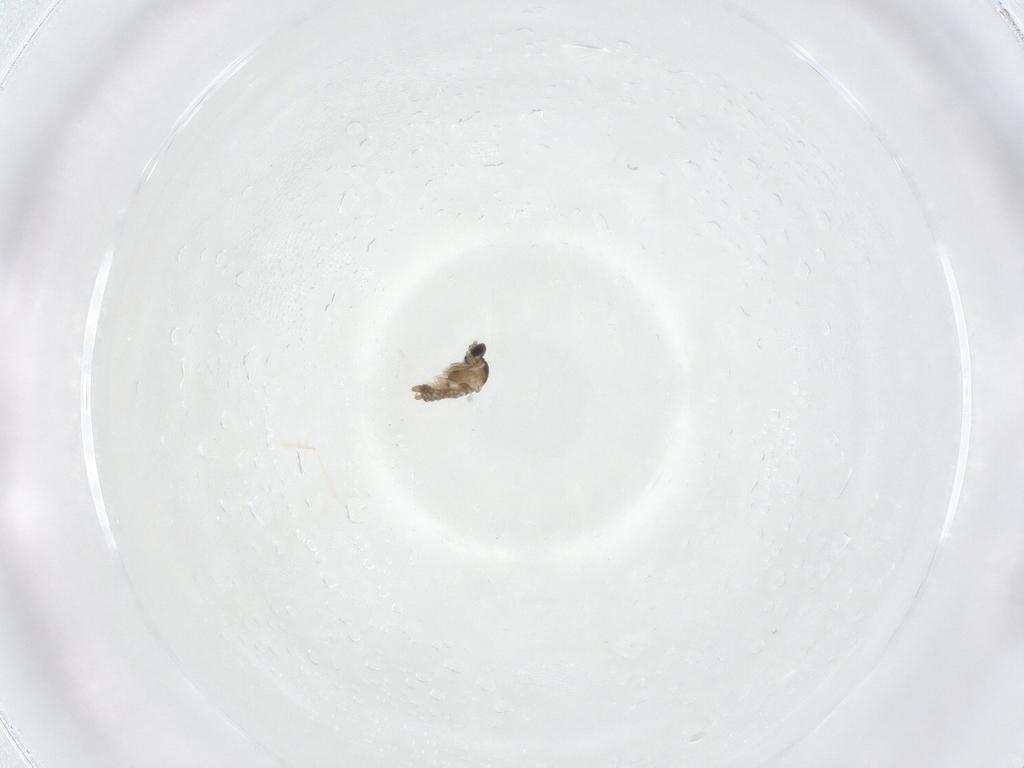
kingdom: Animalia
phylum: Arthropoda
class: Insecta
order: Diptera
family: Cecidomyiidae
